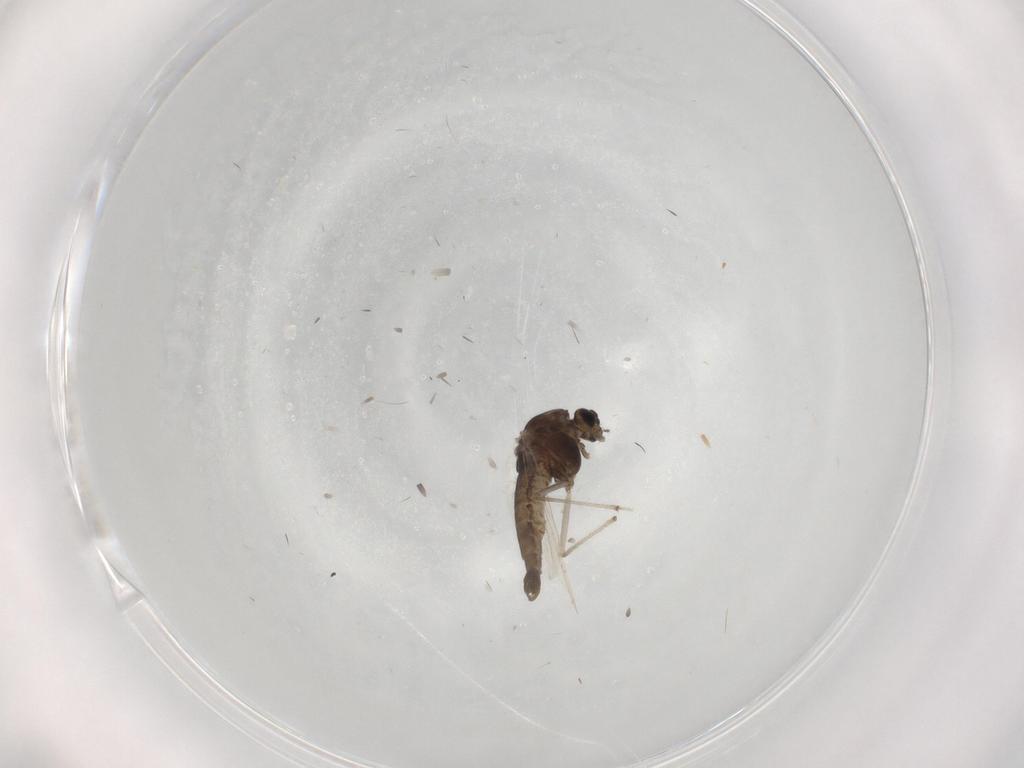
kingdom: Animalia
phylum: Arthropoda
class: Insecta
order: Diptera
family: Chironomidae
